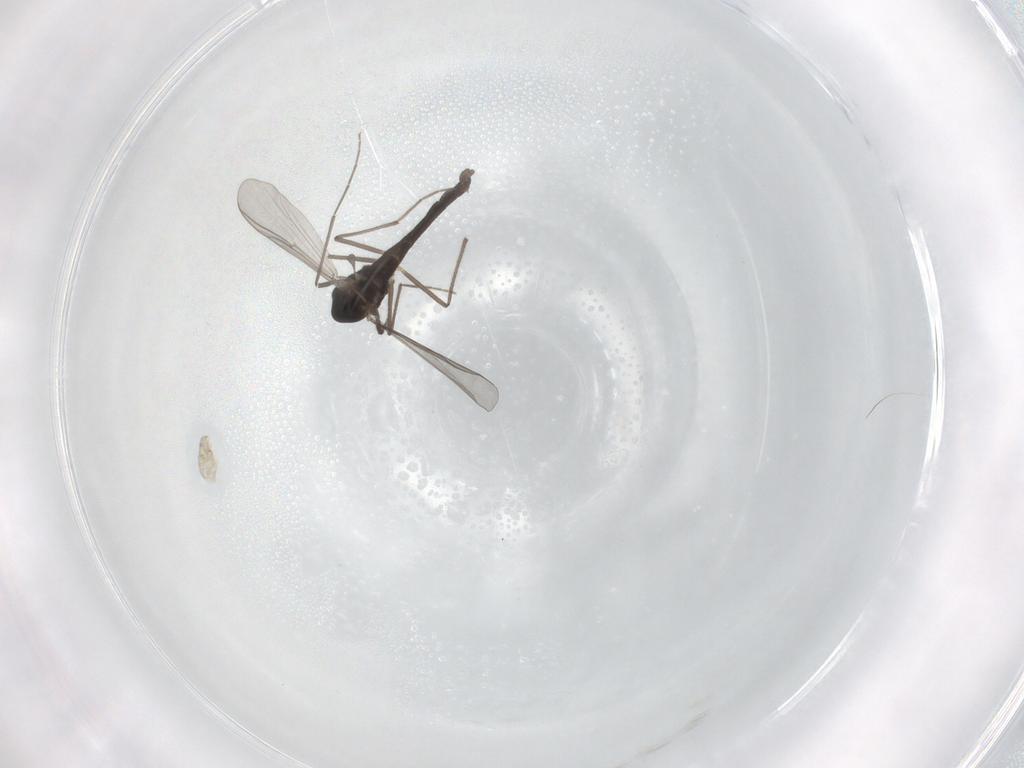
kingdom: Animalia
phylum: Arthropoda
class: Insecta
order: Diptera
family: Chironomidae
